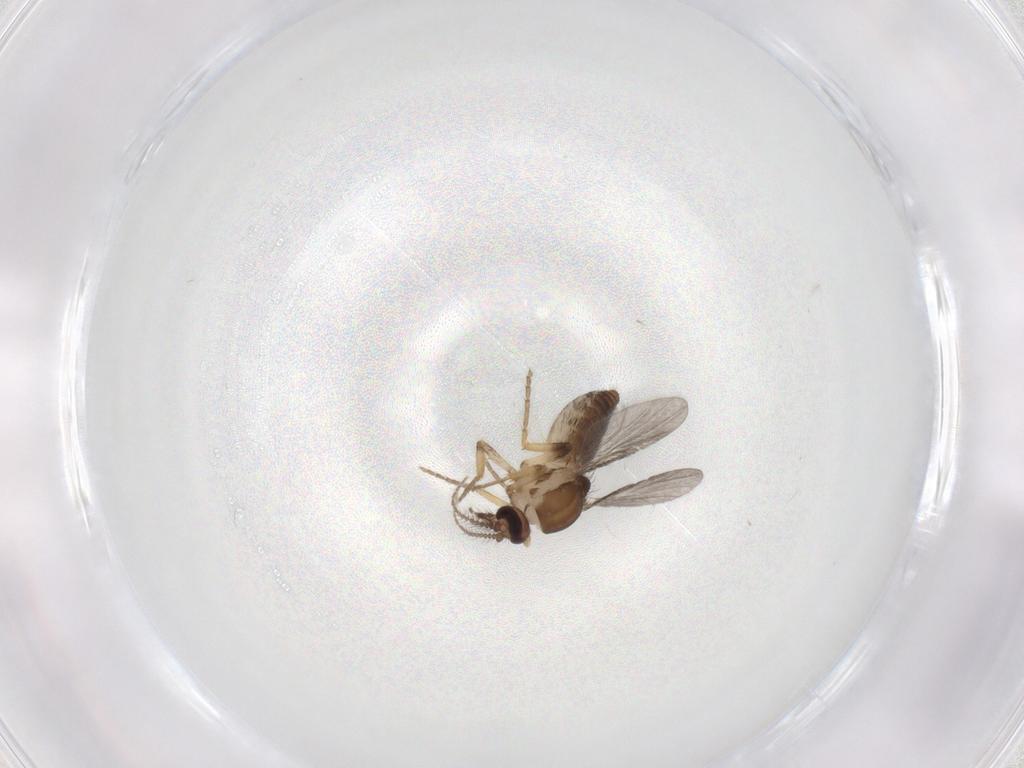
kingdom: Animalia
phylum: Arthropoda
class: Insecta
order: Diptera
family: Ceratopogonidae
